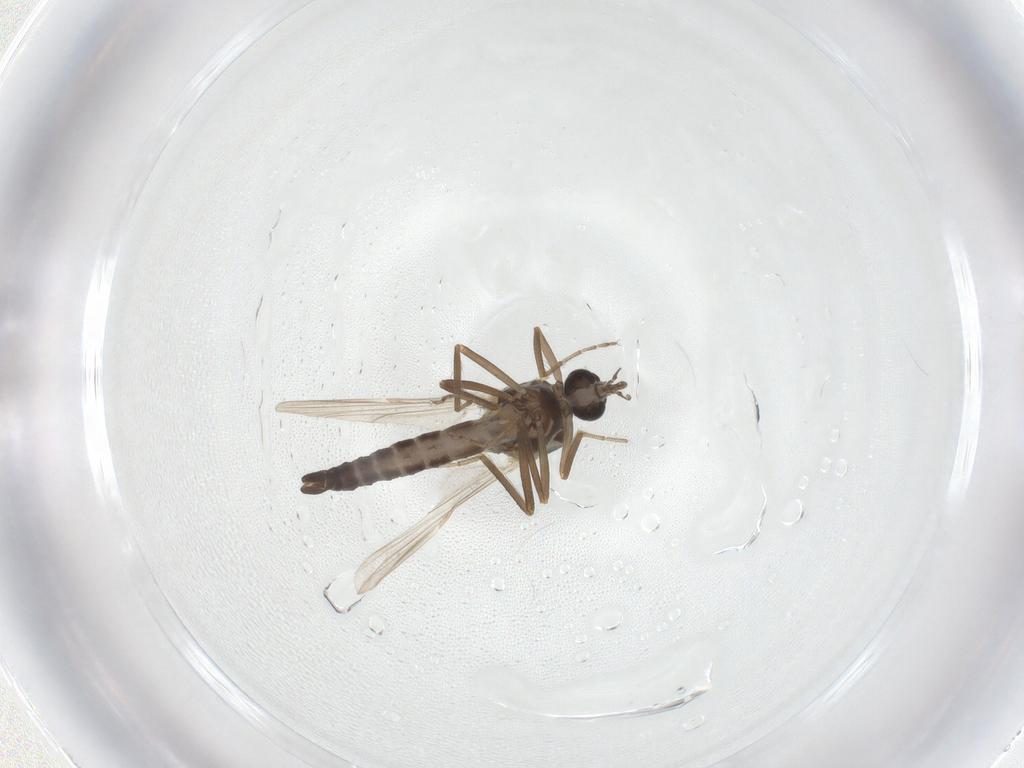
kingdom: Animalia
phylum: Arthropoda
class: Insecta
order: Diptera
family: Ceratopogonidae
